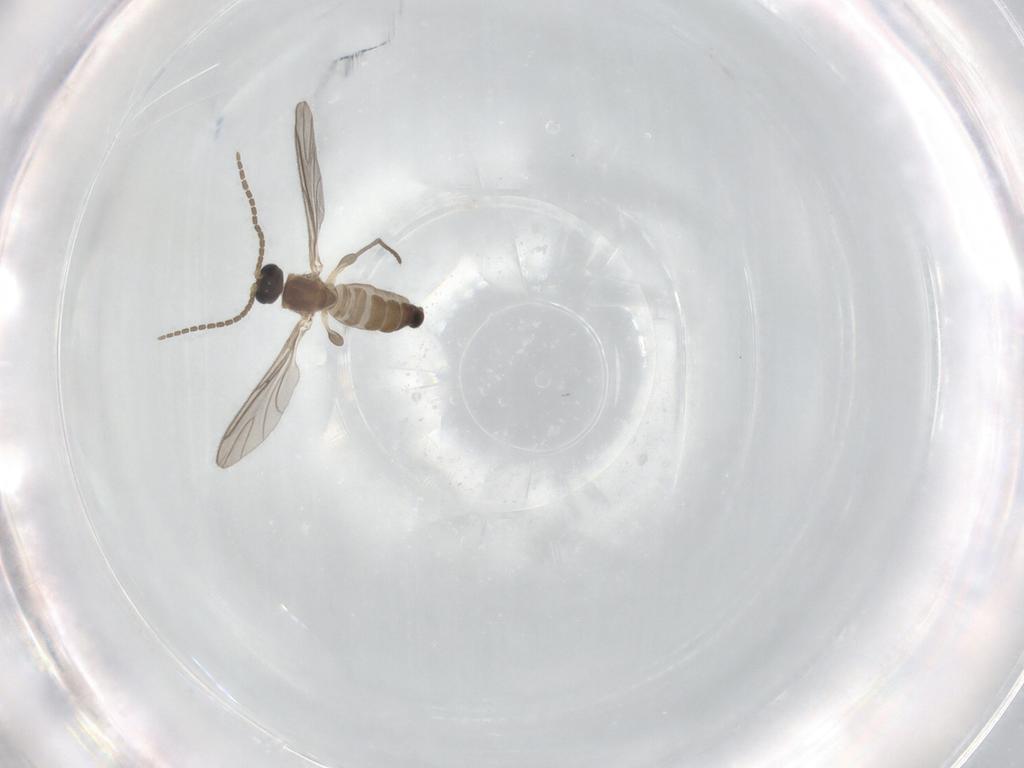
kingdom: Animalia
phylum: Arthropoda
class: Insecta
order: Diptera
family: Sciaridae
